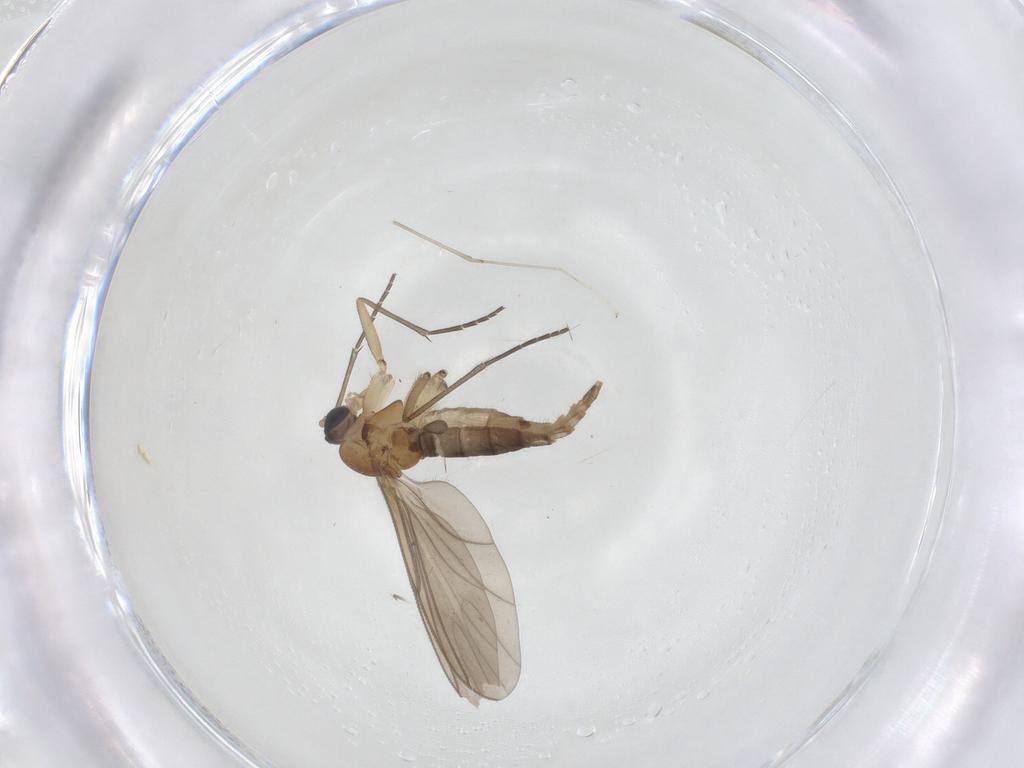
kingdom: Animalia
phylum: Arthropoda
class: Insecta
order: Diptera
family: Cecidomyiidae
